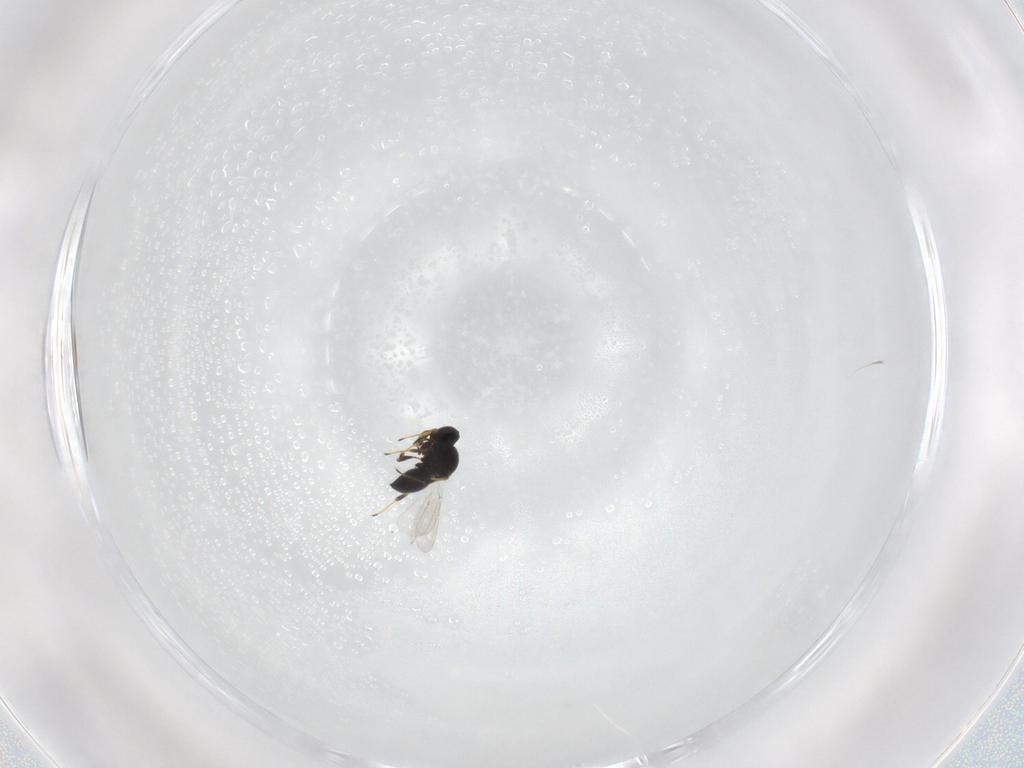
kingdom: Animalia
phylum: Arthropoda
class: Insecta
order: Hymenoptera
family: Platygastridae
